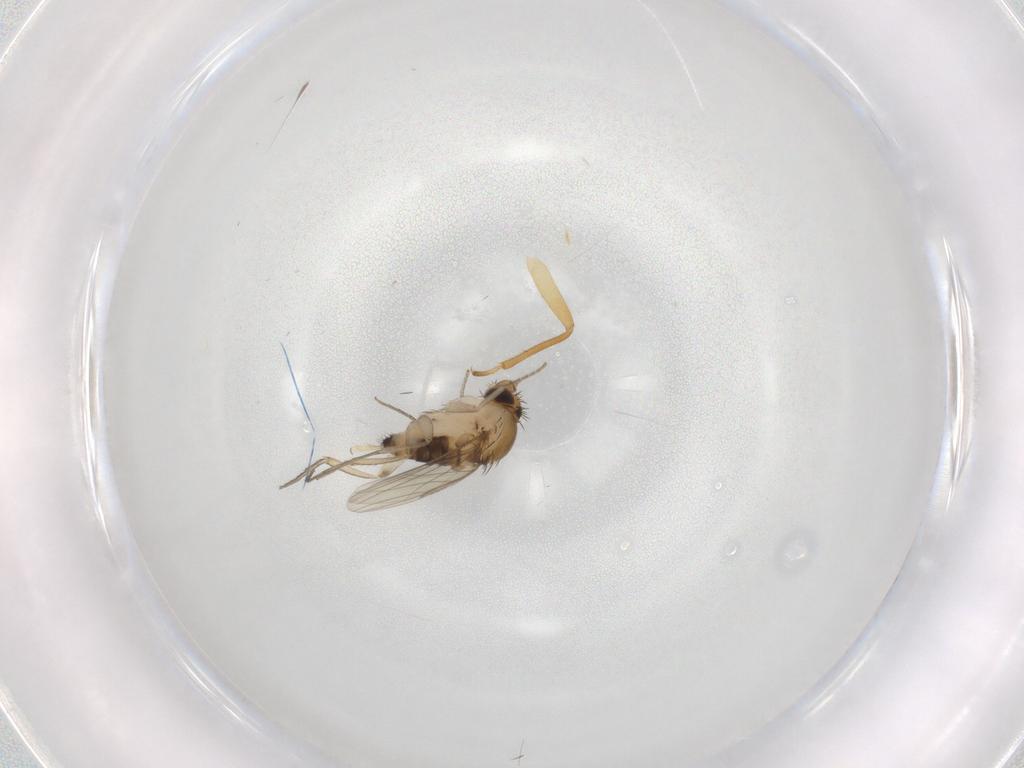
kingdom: Animalia
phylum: Arthropoda
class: Insecta
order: Diptera
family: Phoridae
